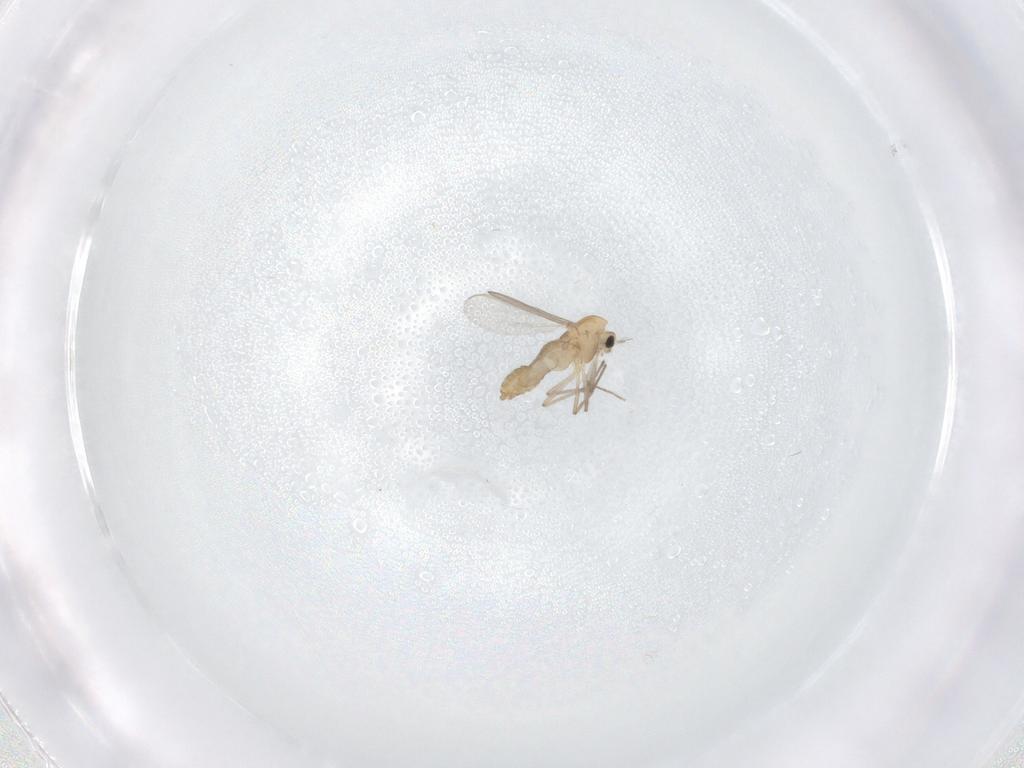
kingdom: Animalia
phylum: Arthropoda
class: Insecta
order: Diptera
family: Chironomidae
